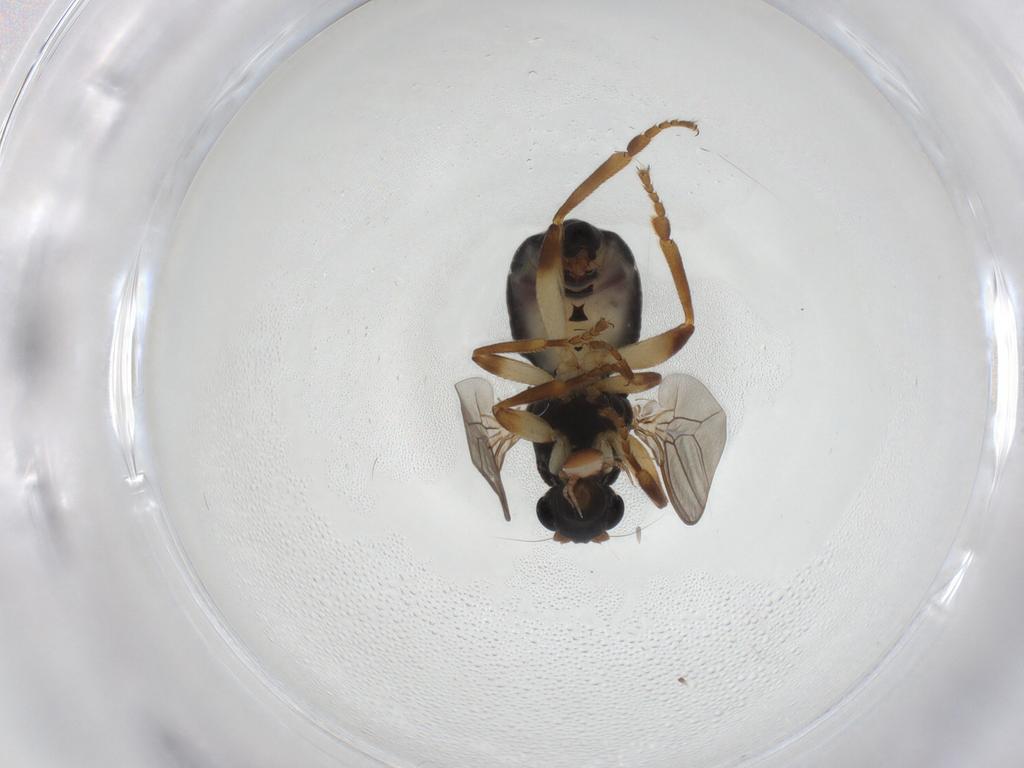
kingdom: Animalia
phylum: Arthropoda
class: Insecta
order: Diptera
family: Sphaeroceridae
